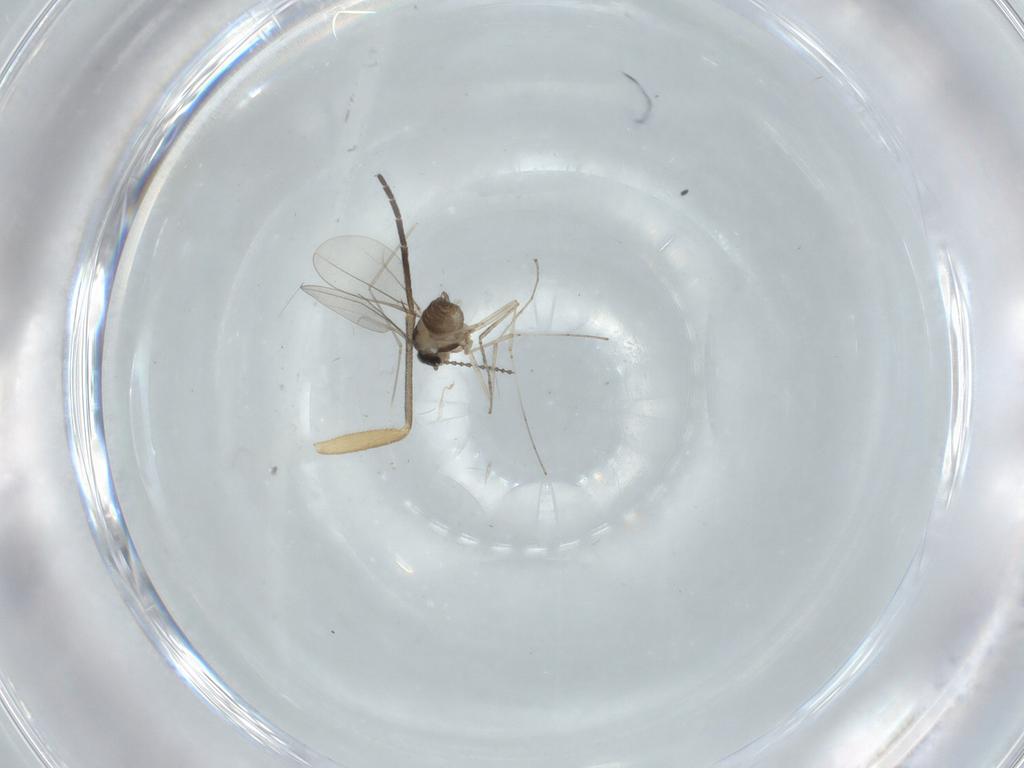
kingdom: Animalia
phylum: Arthropoda
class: Insecta
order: Diptera
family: Sciaridae
